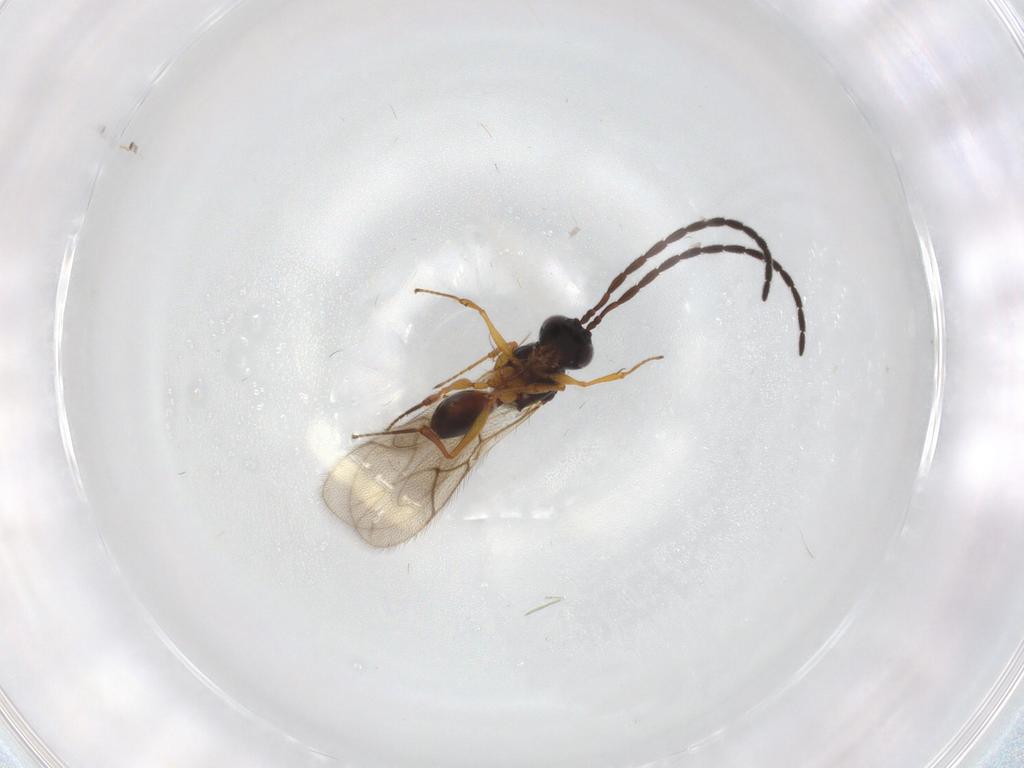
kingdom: Animalia
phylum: Arthropoda
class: Insecta
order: Hymenoptera
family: Figitidae
